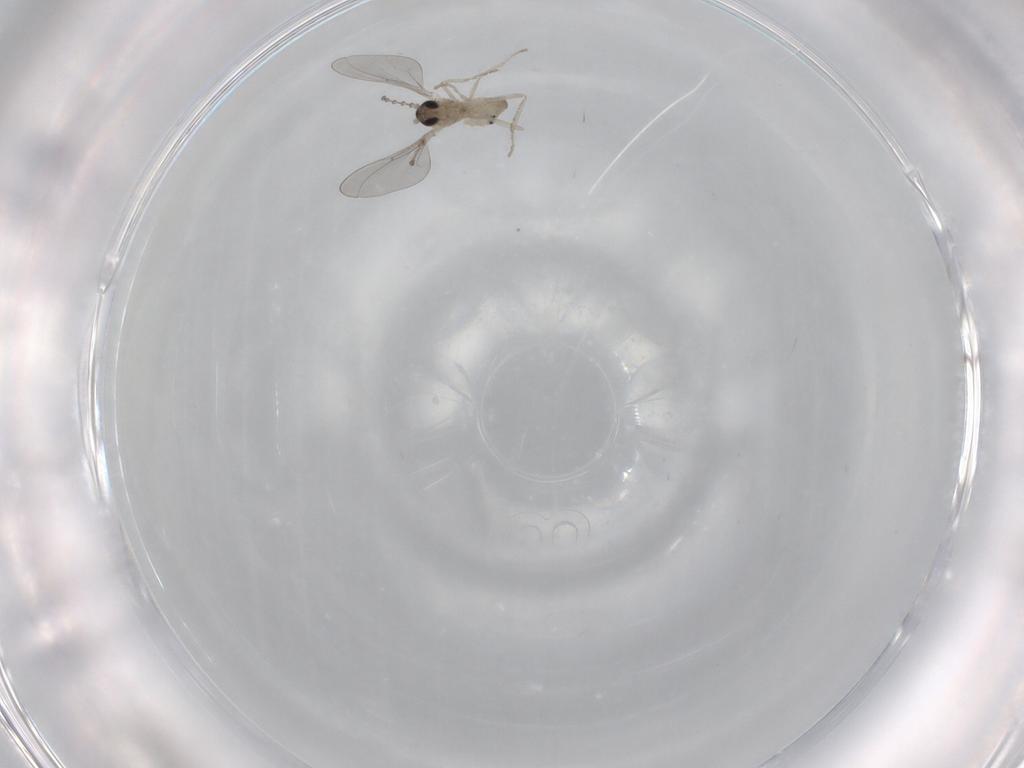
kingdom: Animalia
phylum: Arthropoda
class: Insecta
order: Diptera
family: Cecidomyiidae
